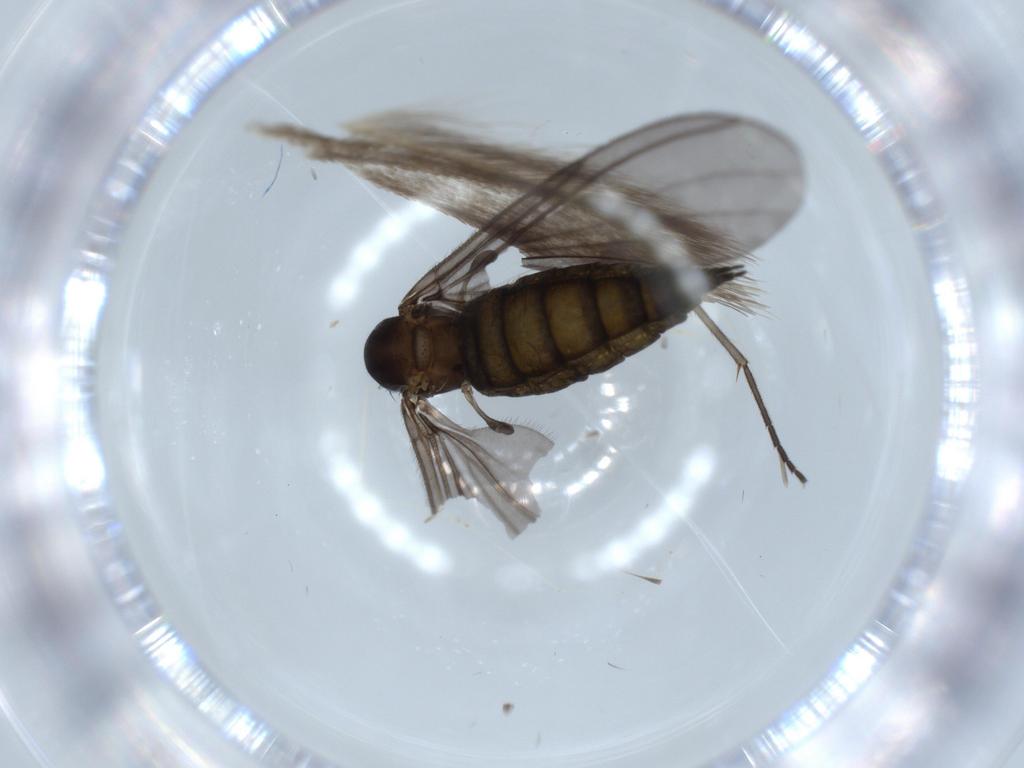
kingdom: Animalia
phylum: Arthropoda
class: Insecta
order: Diptera
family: Sciaridae
